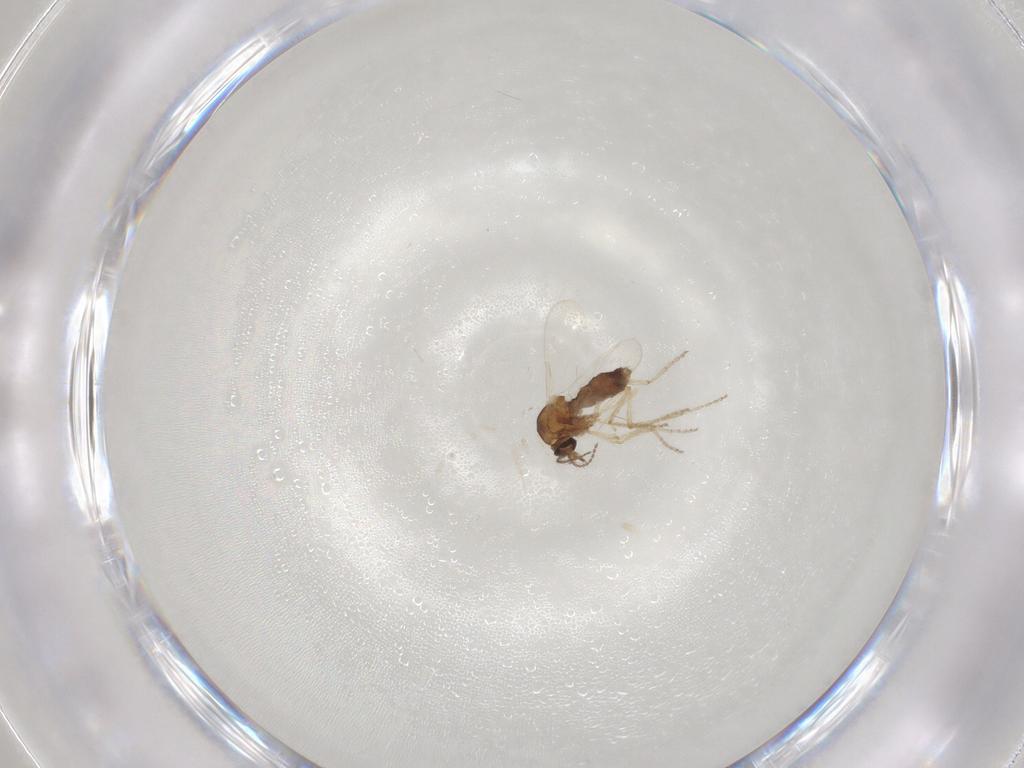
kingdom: Animalia
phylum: Arthropoda
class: Insecta
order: Diptera
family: Ceratopogonidae
